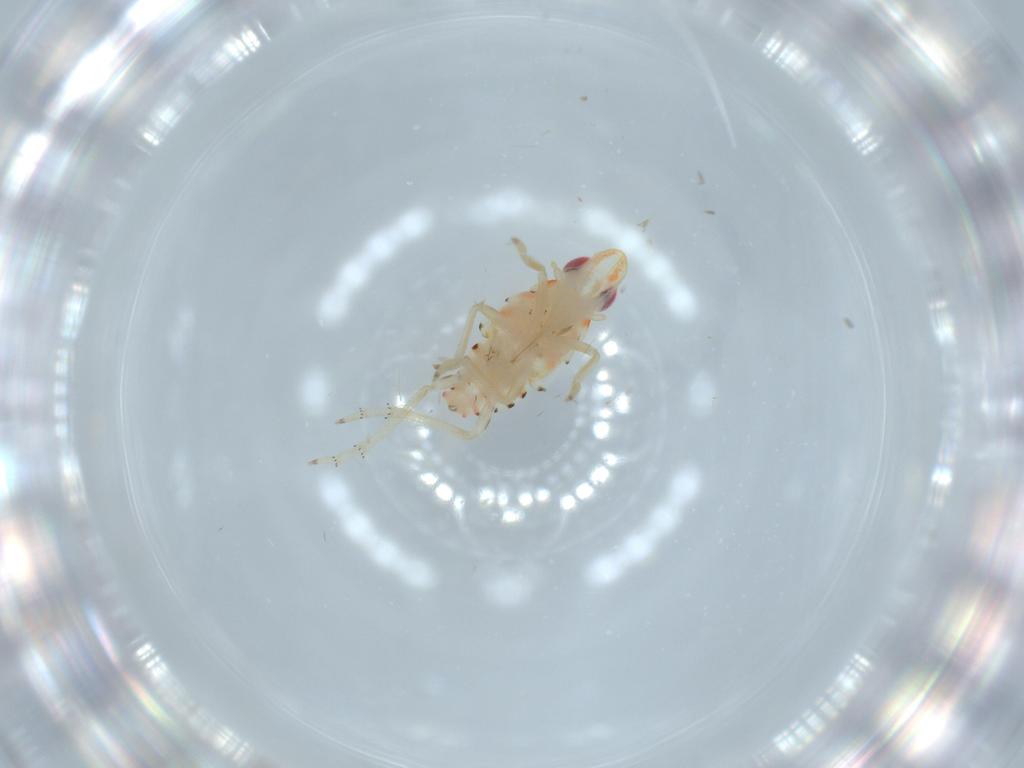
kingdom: Animalia
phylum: Arthropoda
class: Insecta
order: Hemiptera
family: Tropiduchidae
